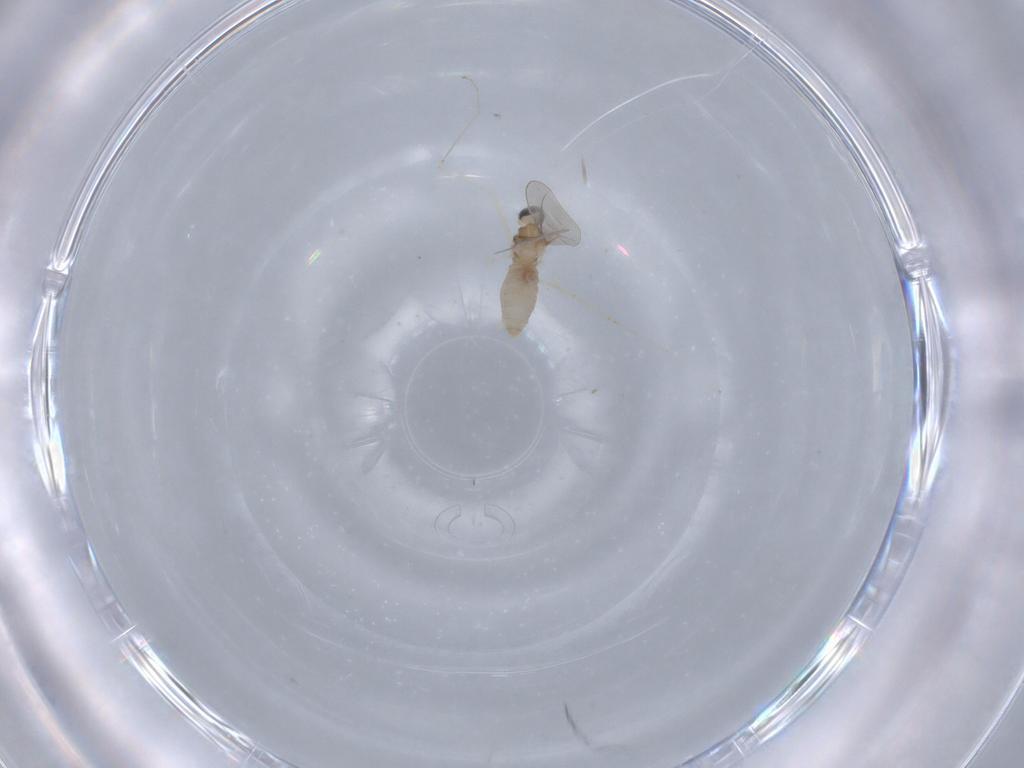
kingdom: Animalia
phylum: Arthropoda
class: Insecta
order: Diptera
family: Phoridae
